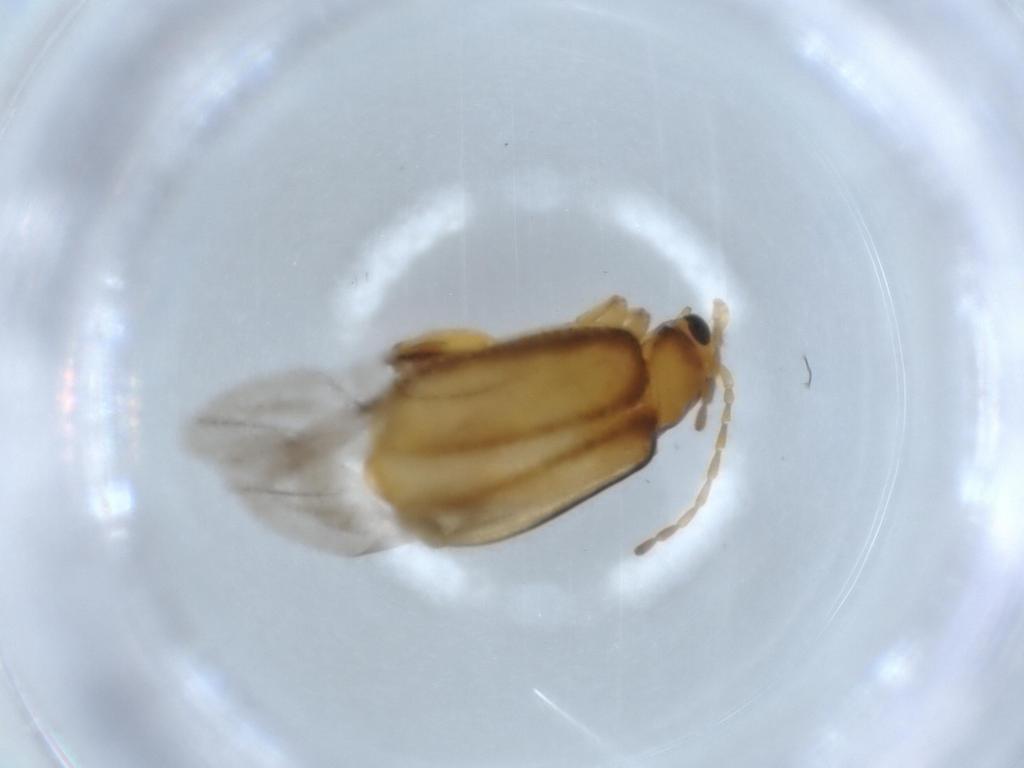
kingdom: Animalia
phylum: Arthropoda
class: Insecta
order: Coleoptera
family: Chrysomelidae
